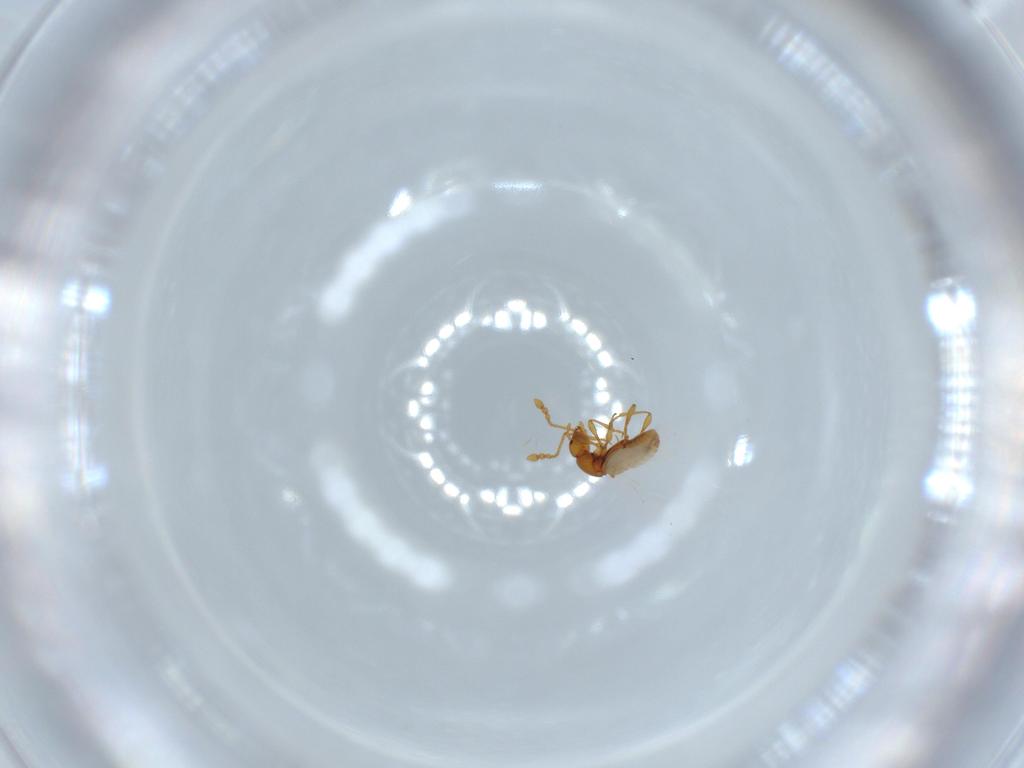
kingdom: Animalia
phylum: Arthropoda
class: Insecta
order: Coleoptera
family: Staphylinidae
